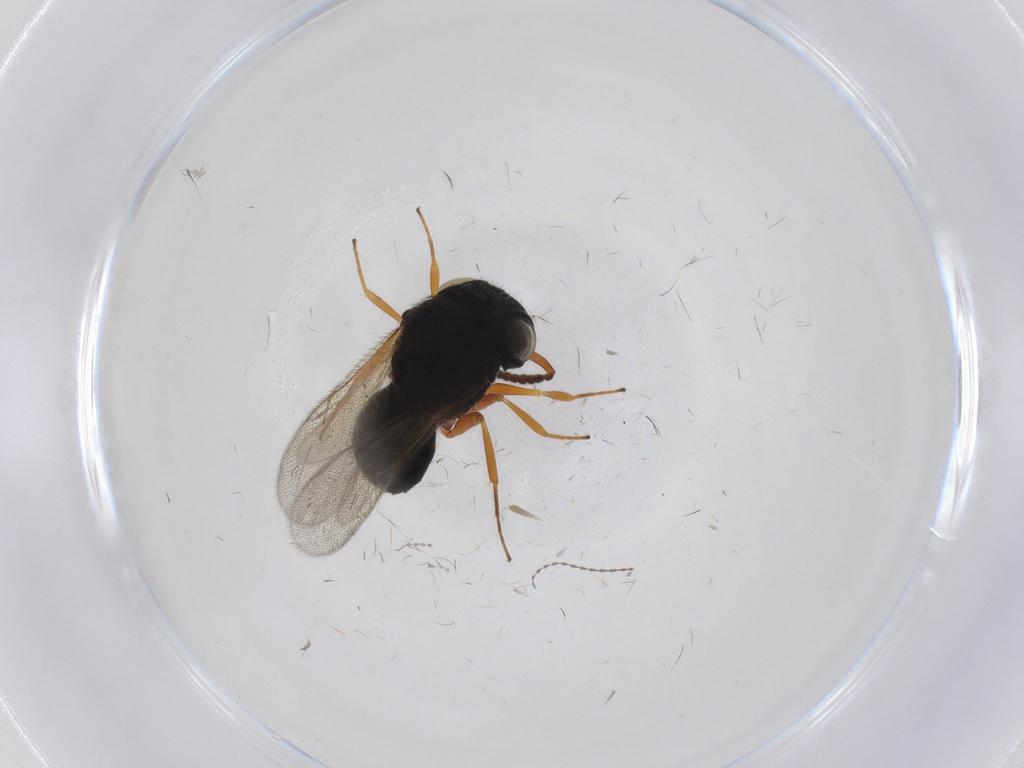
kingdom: Animalia
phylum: Arthropoda
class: Insecta
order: Hymenoptera
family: Scelionidae
